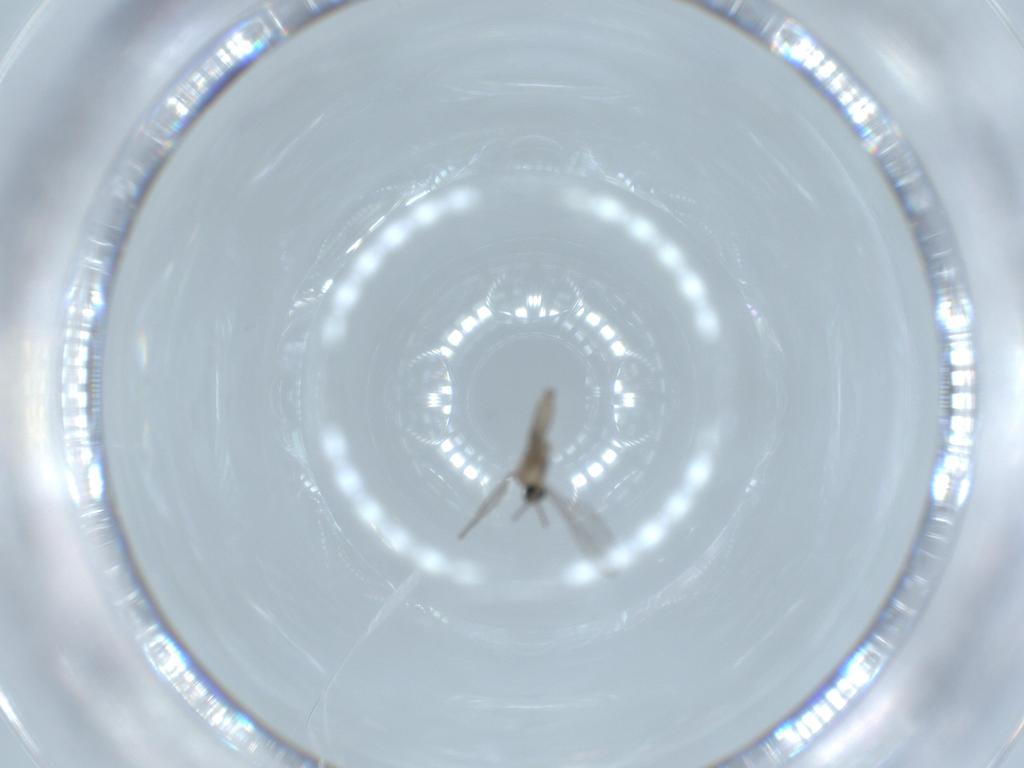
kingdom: Animalia
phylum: Arthropoda
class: Insecta
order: Diptera
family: Cecidomyiidae
